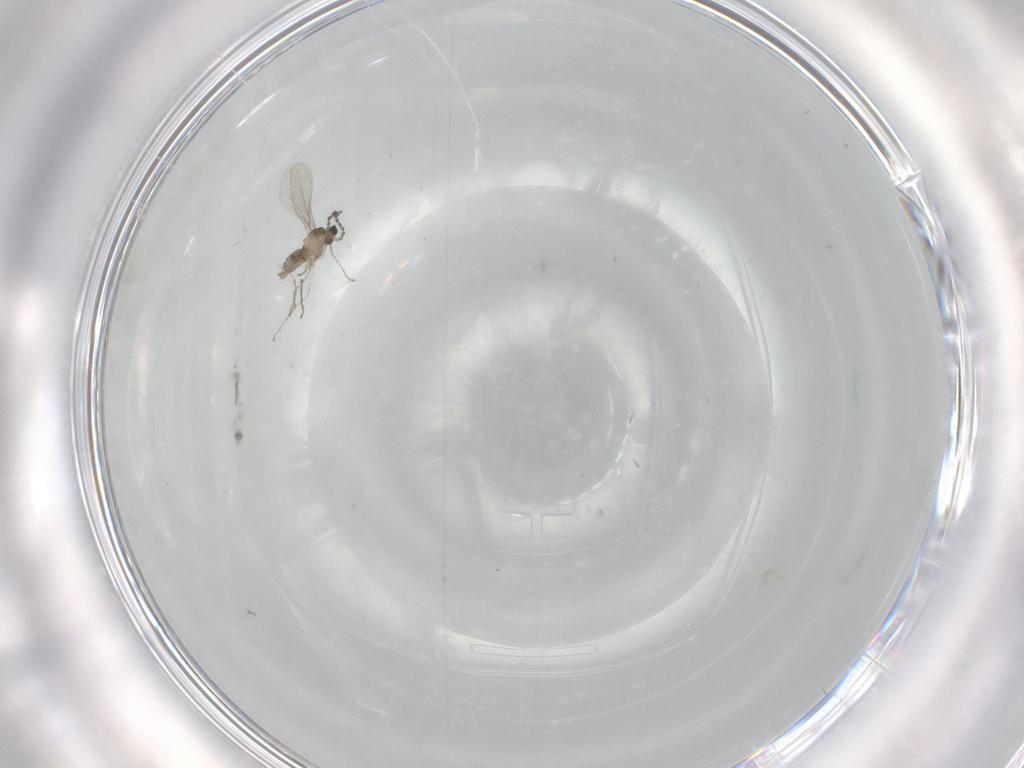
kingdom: Animalia
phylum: Arthropoda
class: Insecta
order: Diptera
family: Phoridae
